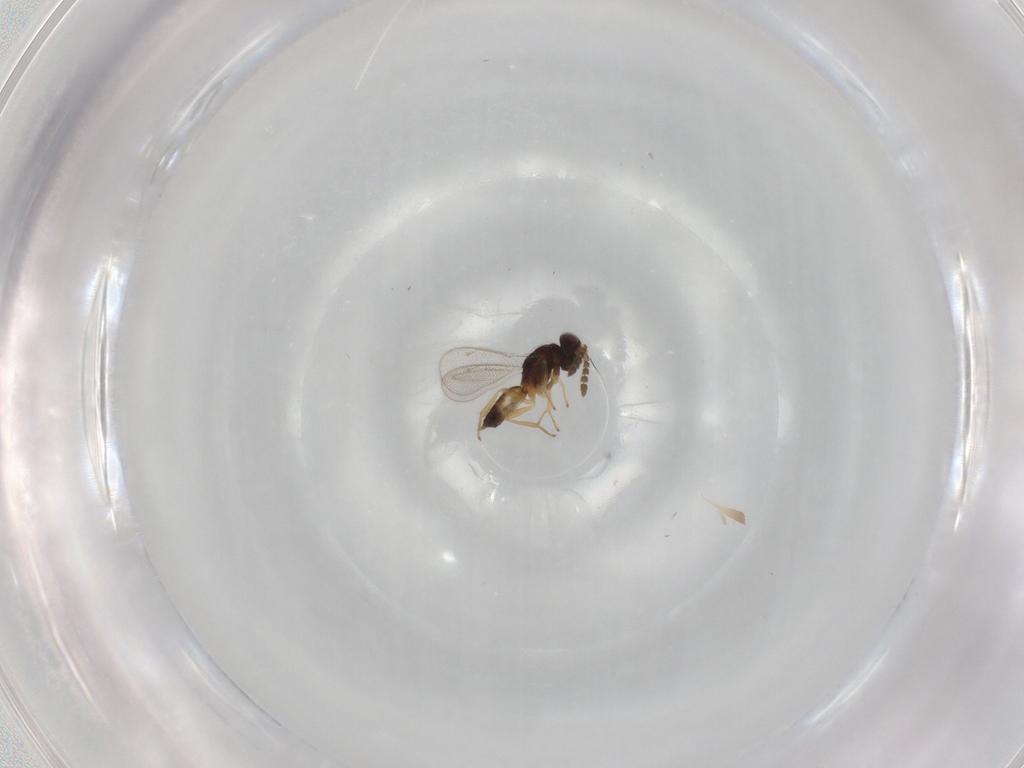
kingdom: Animalia
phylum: Arthropoda
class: Insecta
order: Hymenoptera
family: Eulophidae
